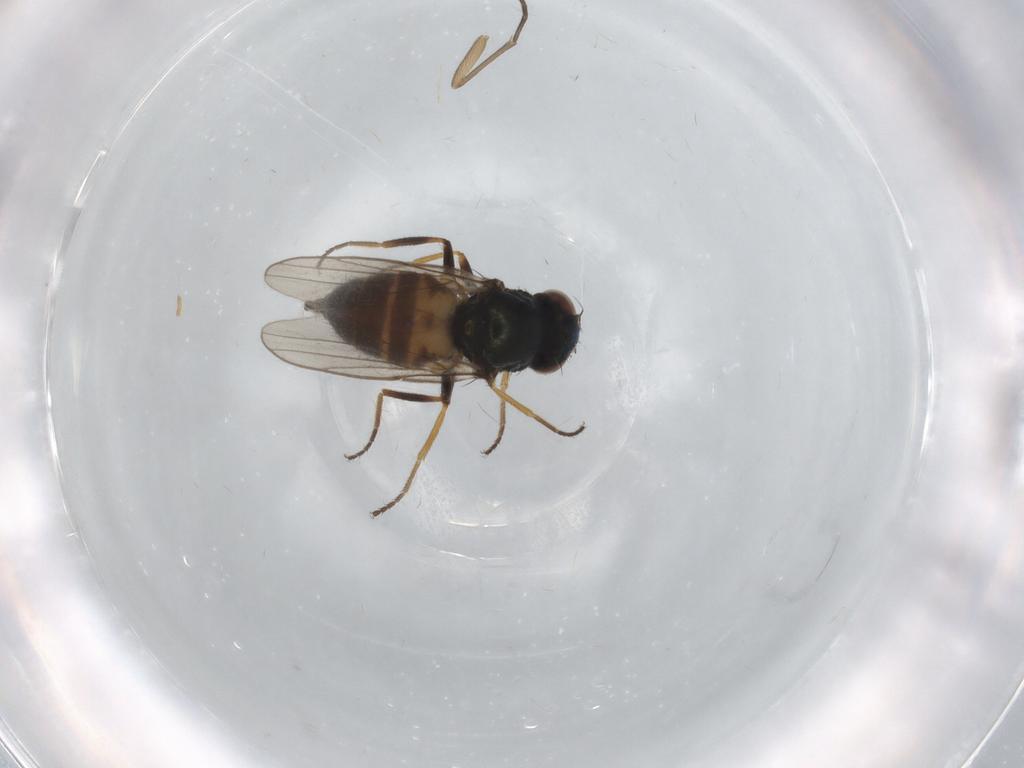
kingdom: Animalia
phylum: Arthropoda
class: Insecta
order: Diptera
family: Chloropidae
